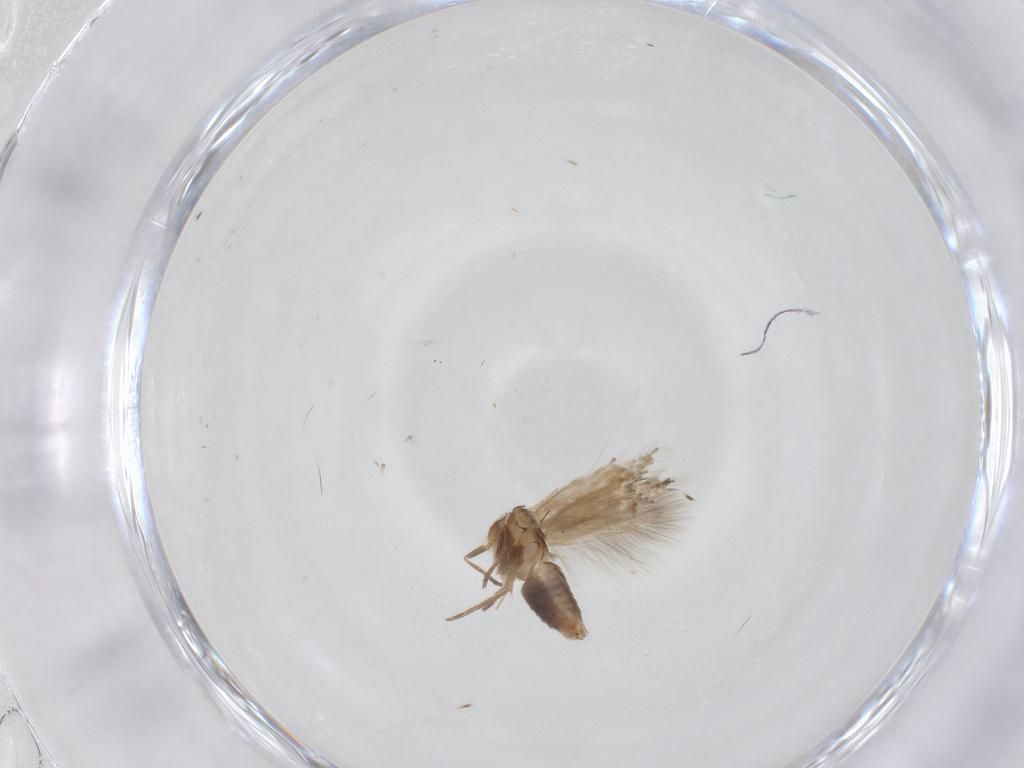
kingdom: Animalia
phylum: Arthropoda
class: Insecta
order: Lepidoptera
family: Heliozelidae
